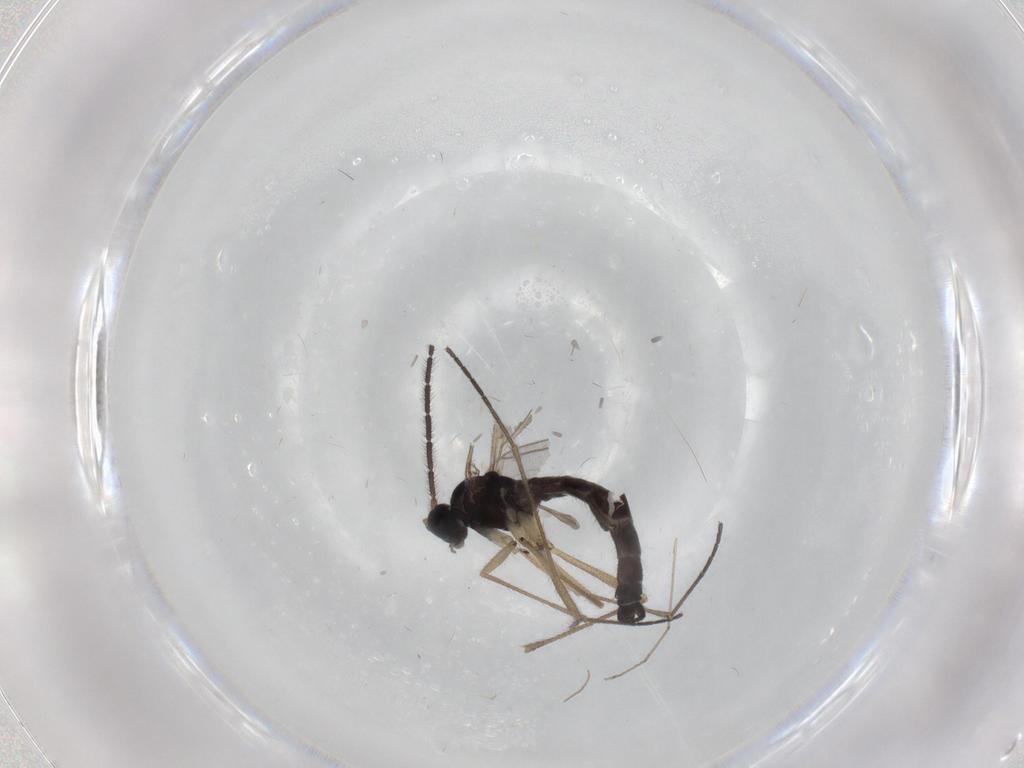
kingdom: Animalia
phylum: Arthropoda
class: Insecta
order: Diptera
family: Sciaridae
